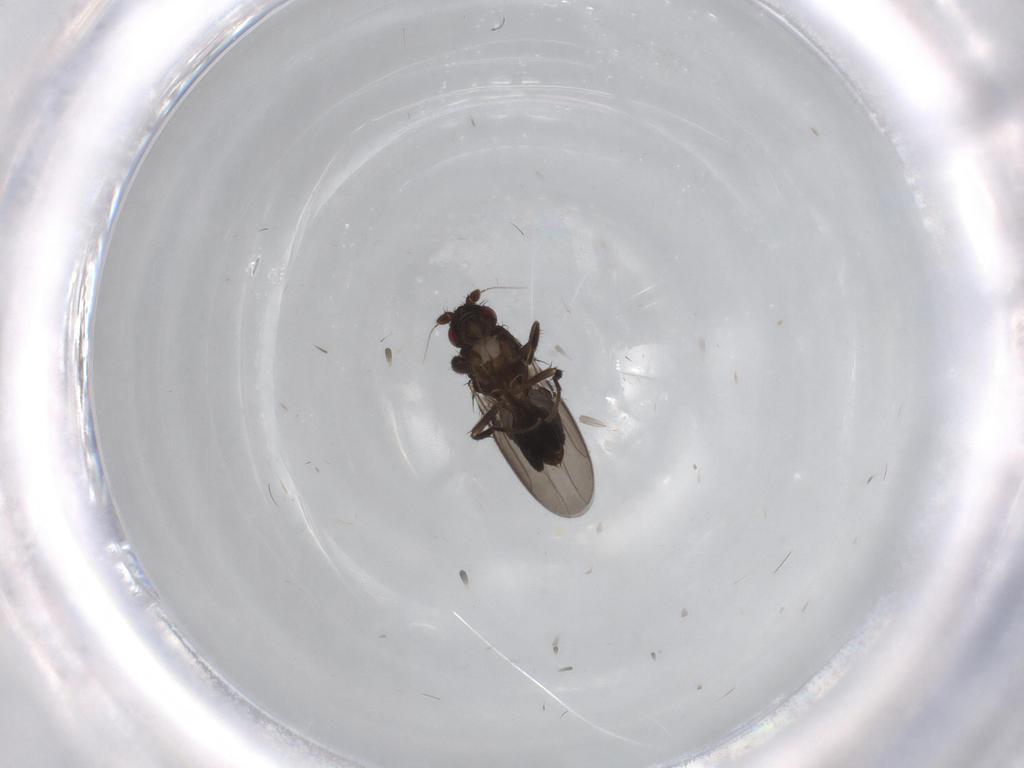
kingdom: Animalia
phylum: Arthropoda
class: Insecta
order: Diptera
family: Sphaeroceridae
